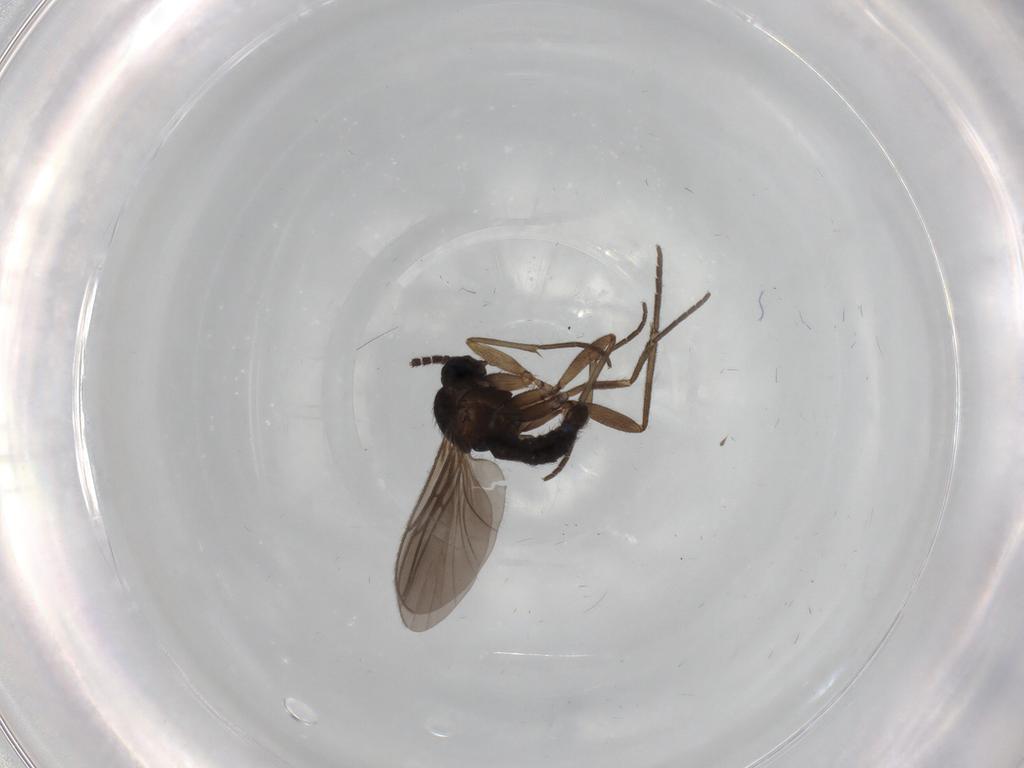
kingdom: Animalia
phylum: Arthropoda
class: Insecta
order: Diptera
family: Sciaridae
